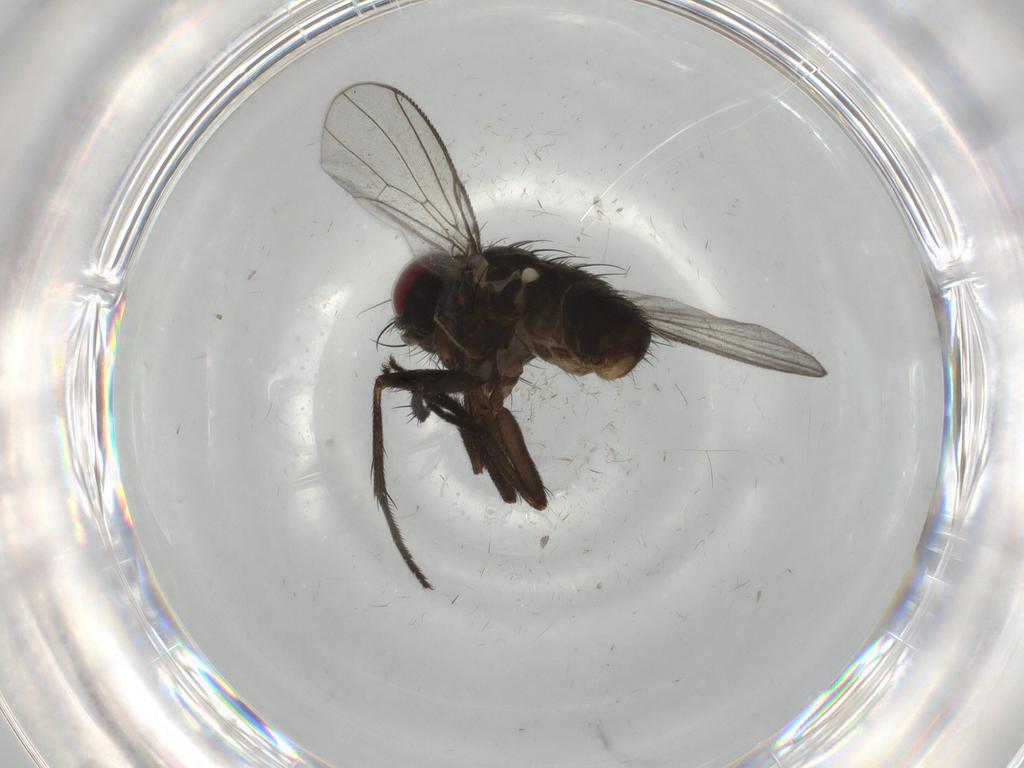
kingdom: Animalia
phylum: Arthropoda
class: Insecta
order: Diptera
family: Muscidae
